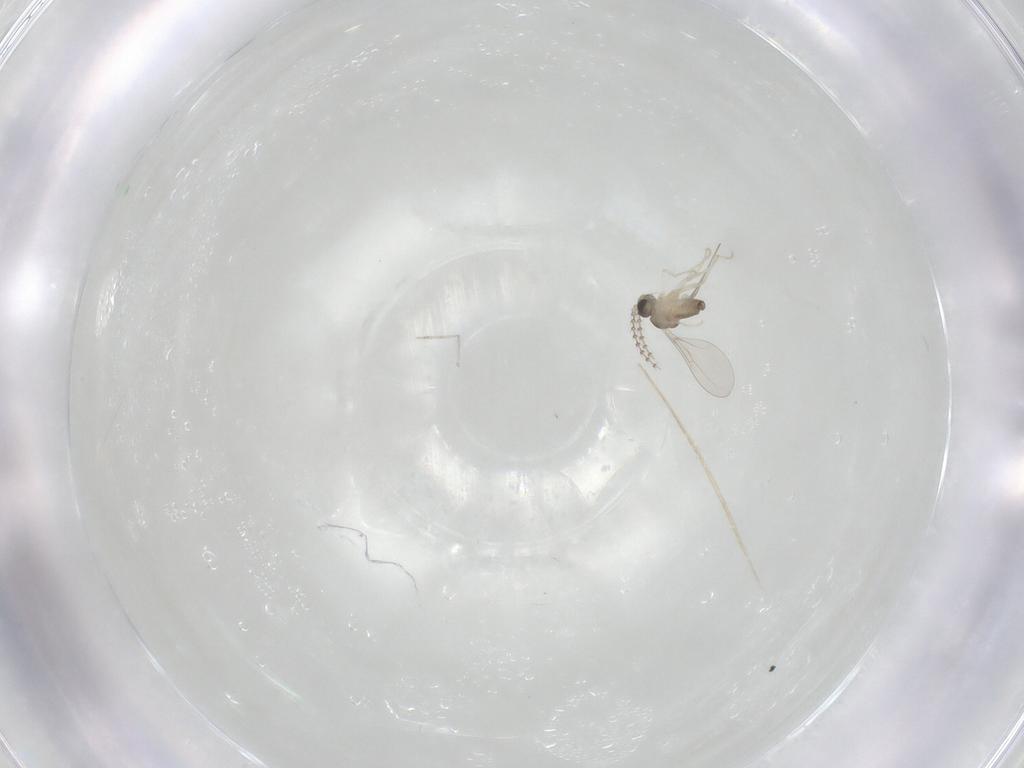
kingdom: Animalia
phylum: Arthropoda
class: Insecta
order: Diptera
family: Cecidomyiidae
